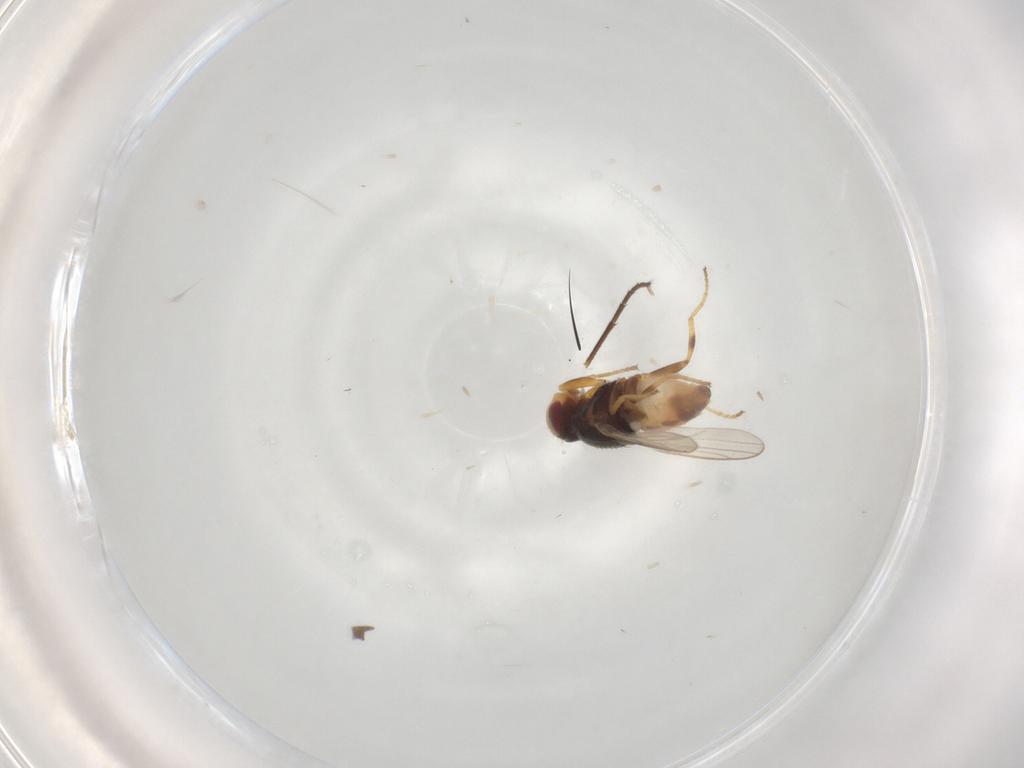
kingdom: Animalia
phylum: Arthropoda
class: Insecta
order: Diptera
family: Chloropidae
